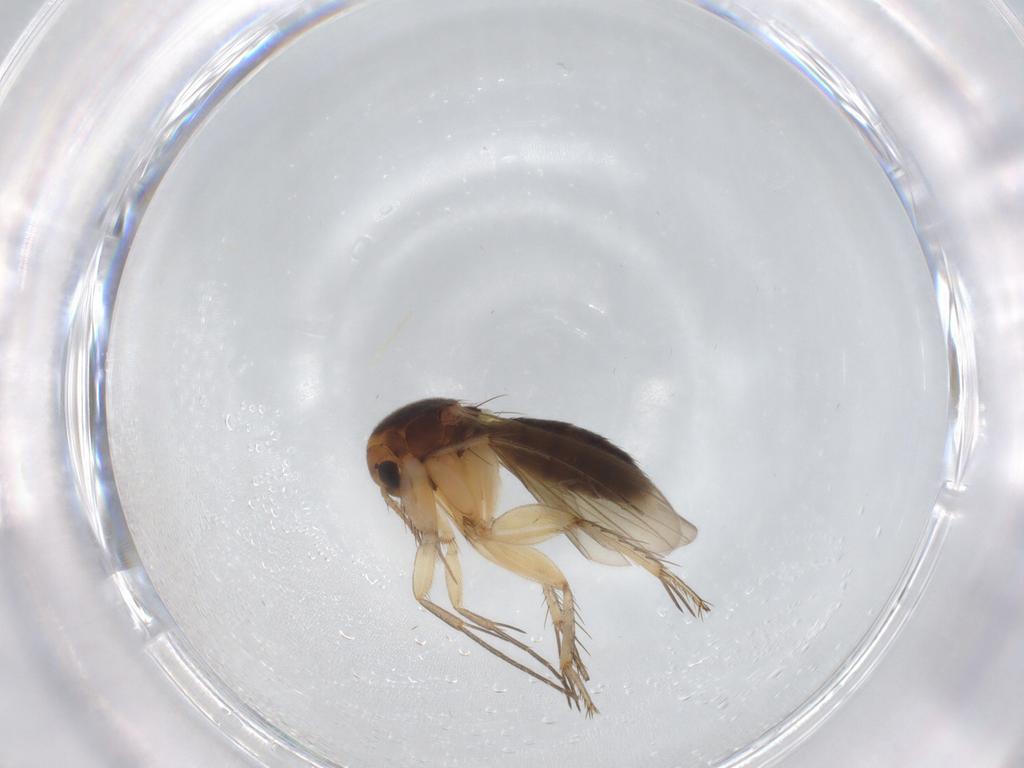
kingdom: Animalia
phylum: Arthropoda
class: Insecta
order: Diptera
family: Mycetophilidae
